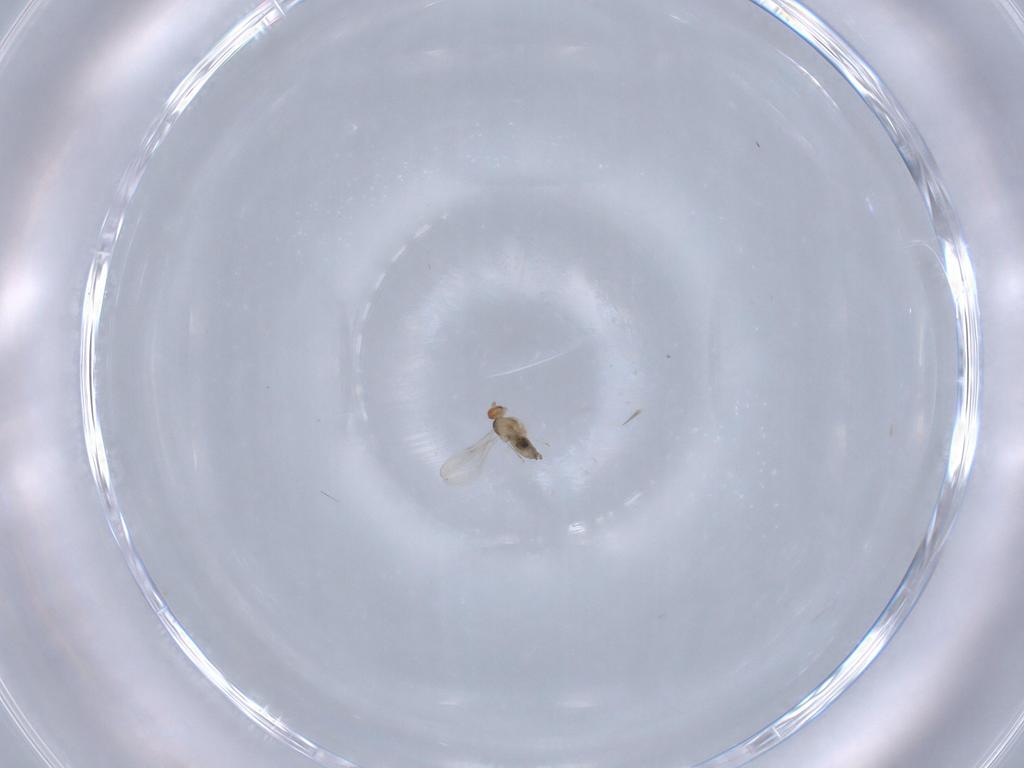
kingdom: Animalia
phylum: Arthropoda
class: Insecta
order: Diptera
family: Cecidomyiidae
